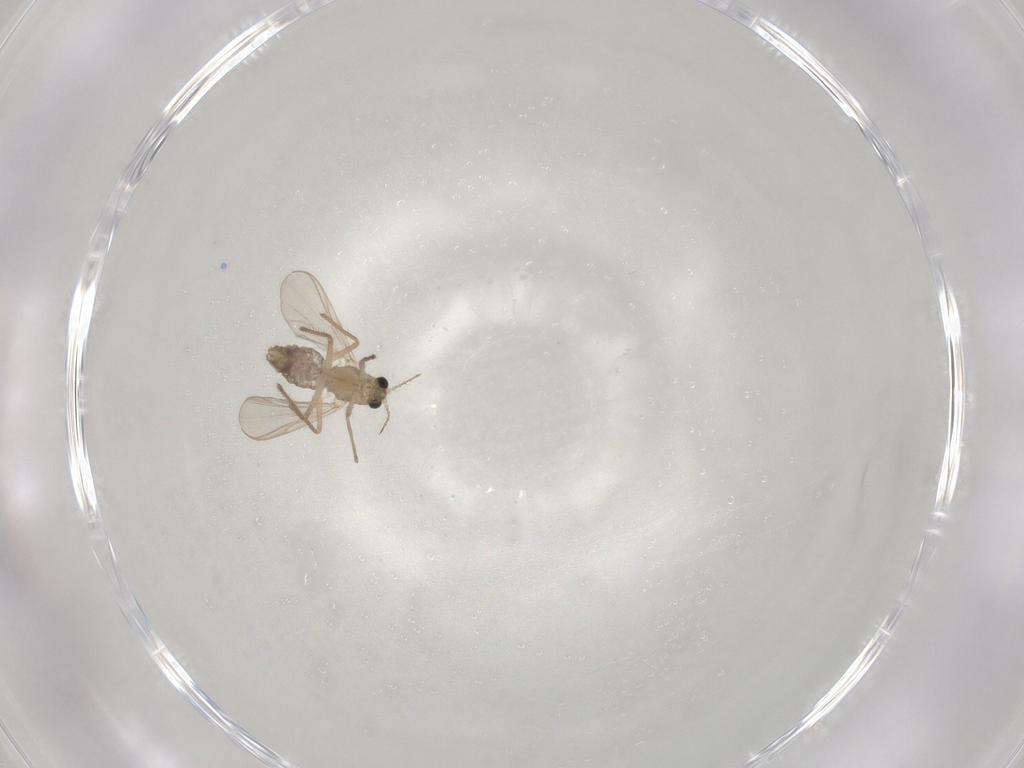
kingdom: Animalia
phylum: Arthropoda
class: Insecta
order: Diptera
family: Chironomidae
